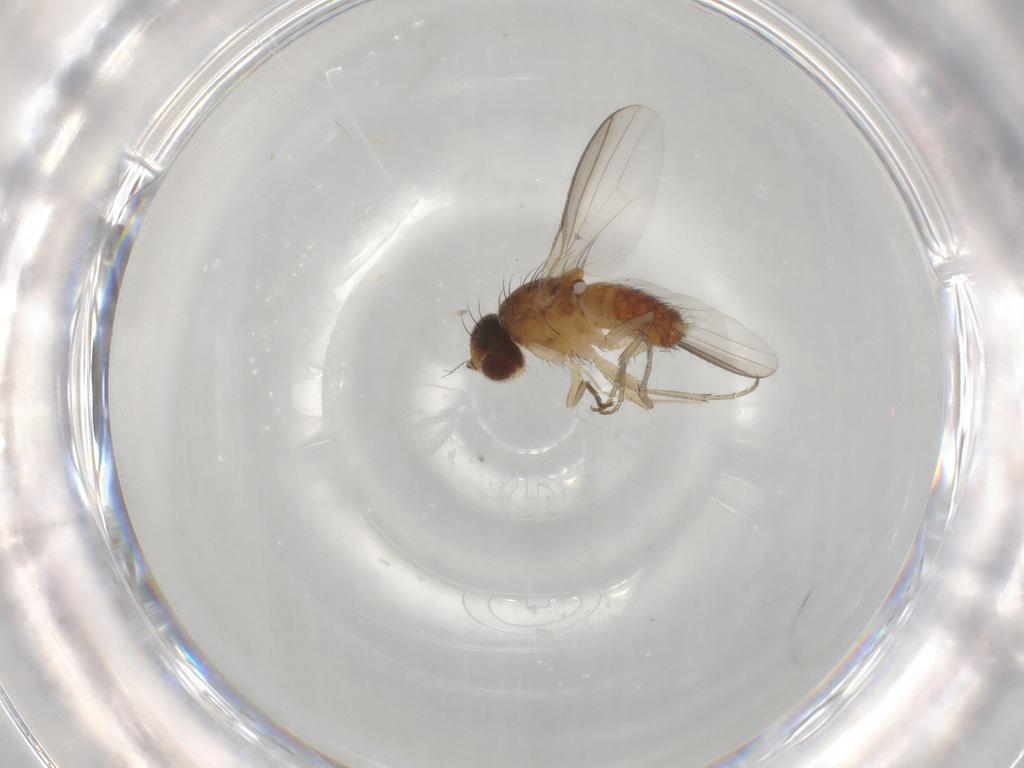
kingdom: Animalia
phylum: Arthropoda
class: Insecta
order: Diptera
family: Heleomyzidae
